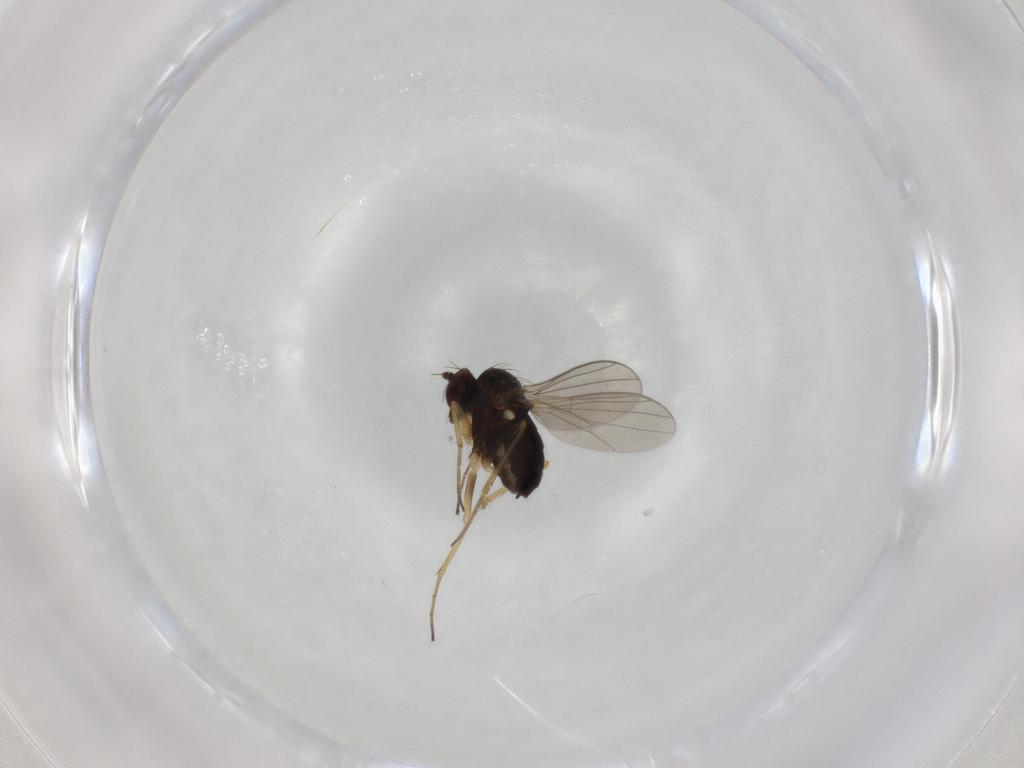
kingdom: Animalia
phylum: Arthropoda
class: Insecta
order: Diptera
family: Dolichopodidae
